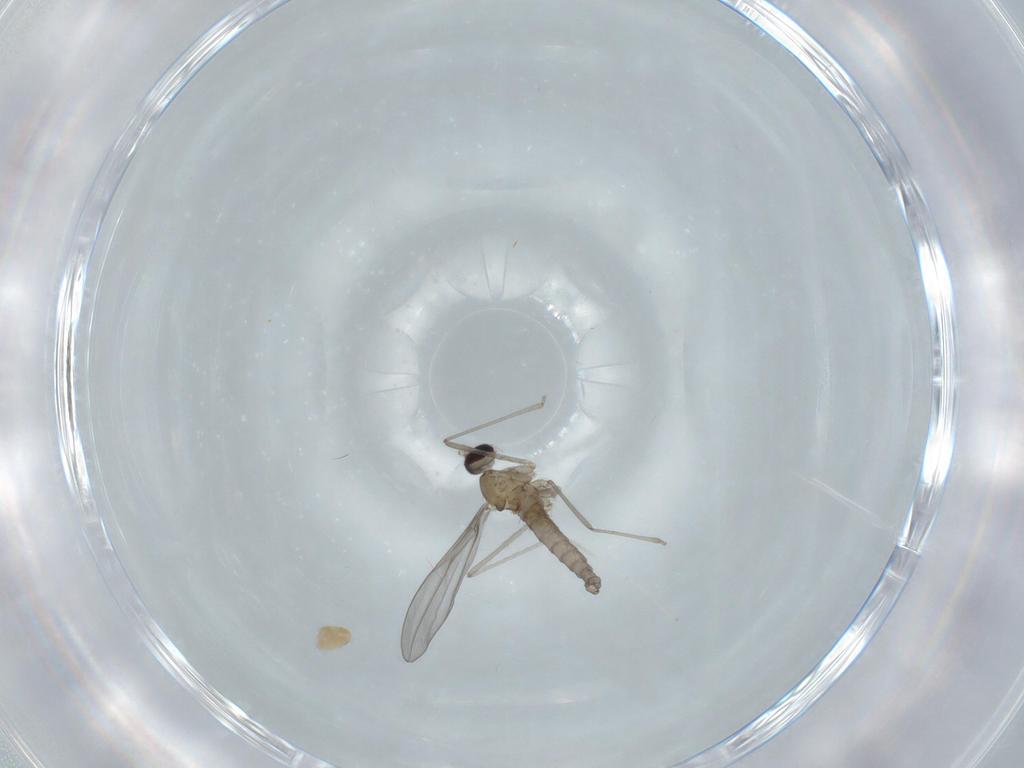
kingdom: Animalia
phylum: Arthropoda
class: Insecta
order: Diptera
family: Cecidomyiidae
